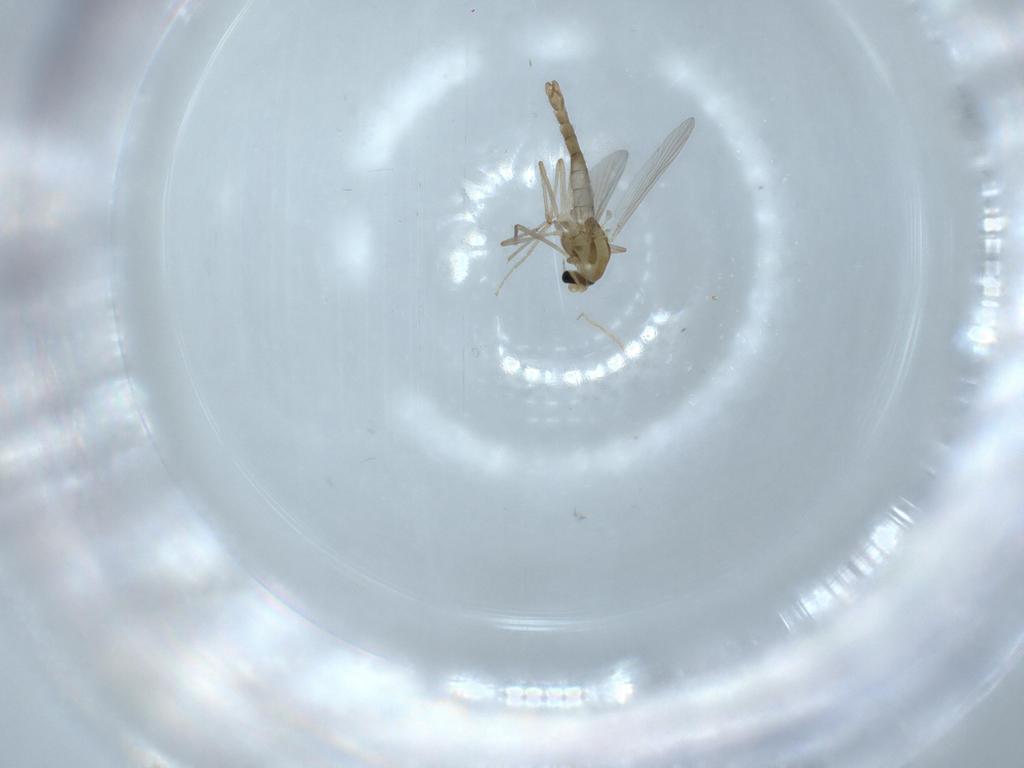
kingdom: Animalia
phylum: Arthropoda
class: Insecta
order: Diptera
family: Chironomidae
